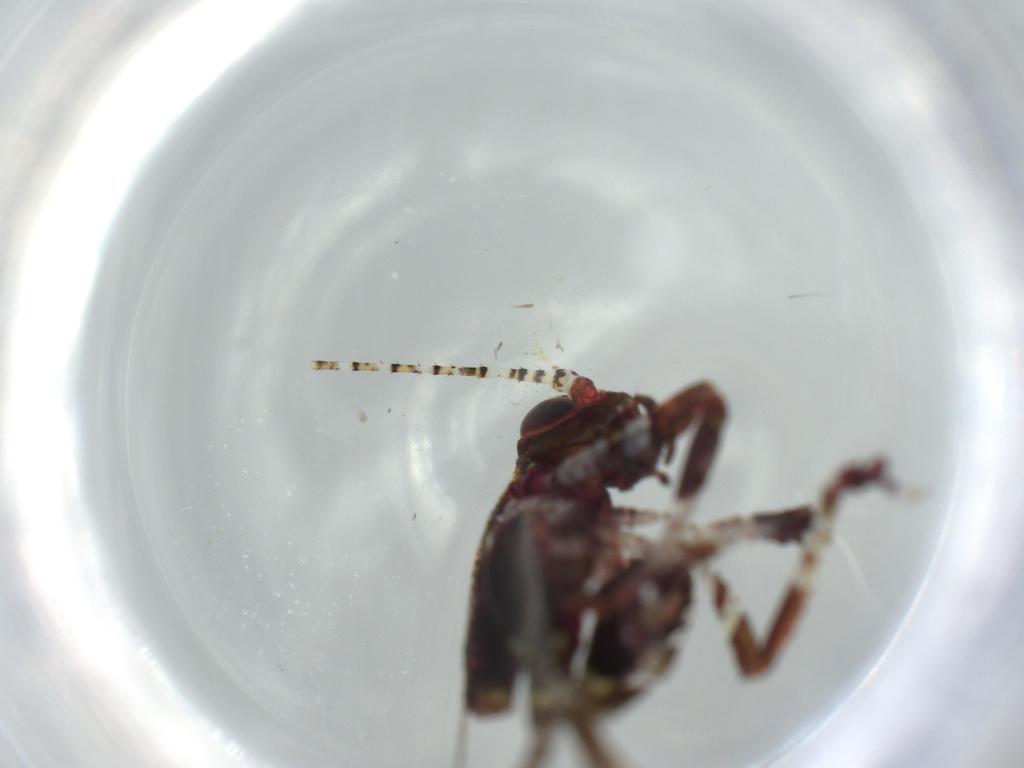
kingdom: Animalia
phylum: Arthropoda
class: Insecta
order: Orthoptera
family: Tettigoniidae
